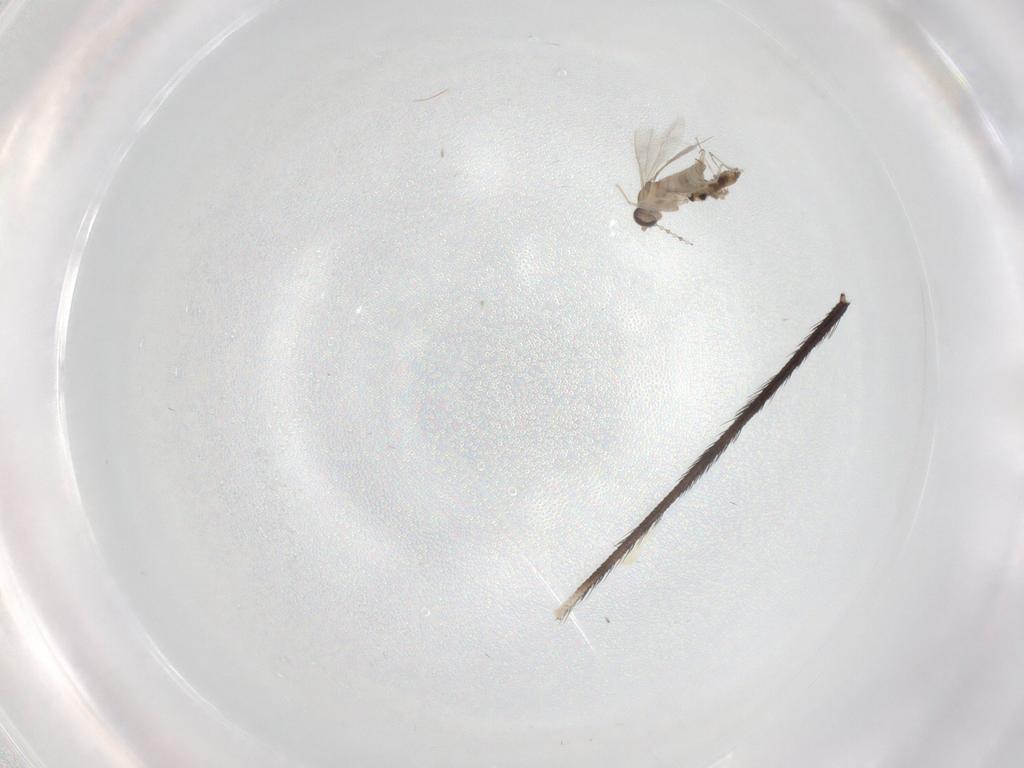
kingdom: Animalia
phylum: Arthropoda
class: Insecta
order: Diptera
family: Cecidomyiidae
